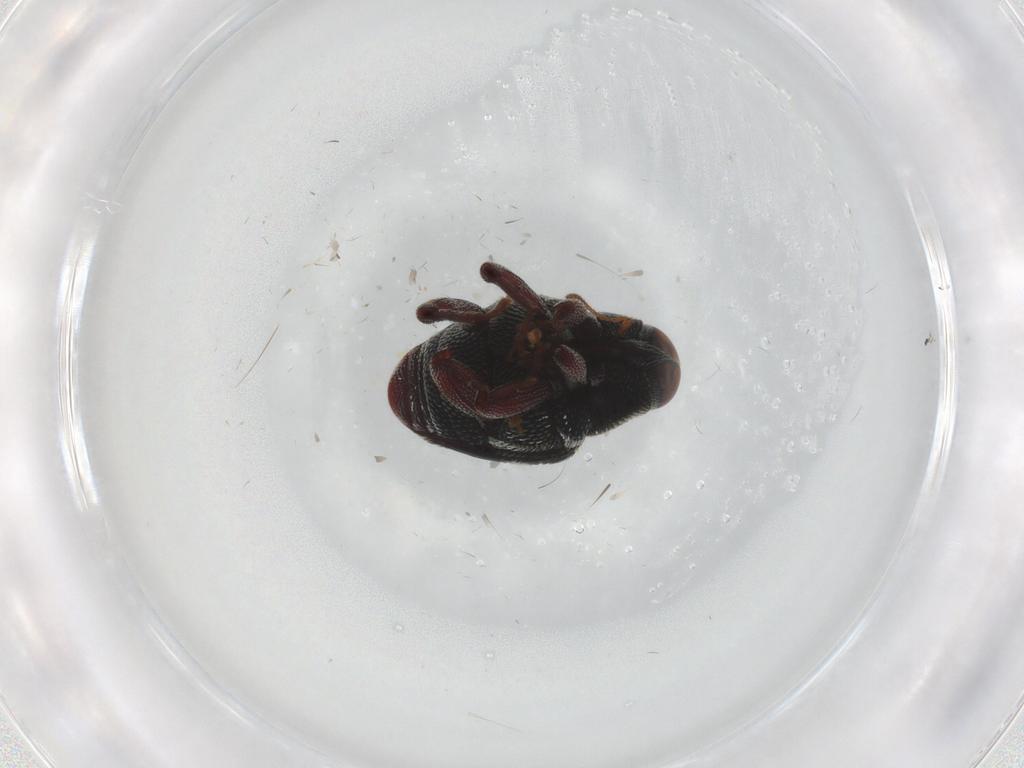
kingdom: Animalia
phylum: Arthropoda
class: Insecta
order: Coleoptera
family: Curculionidae
